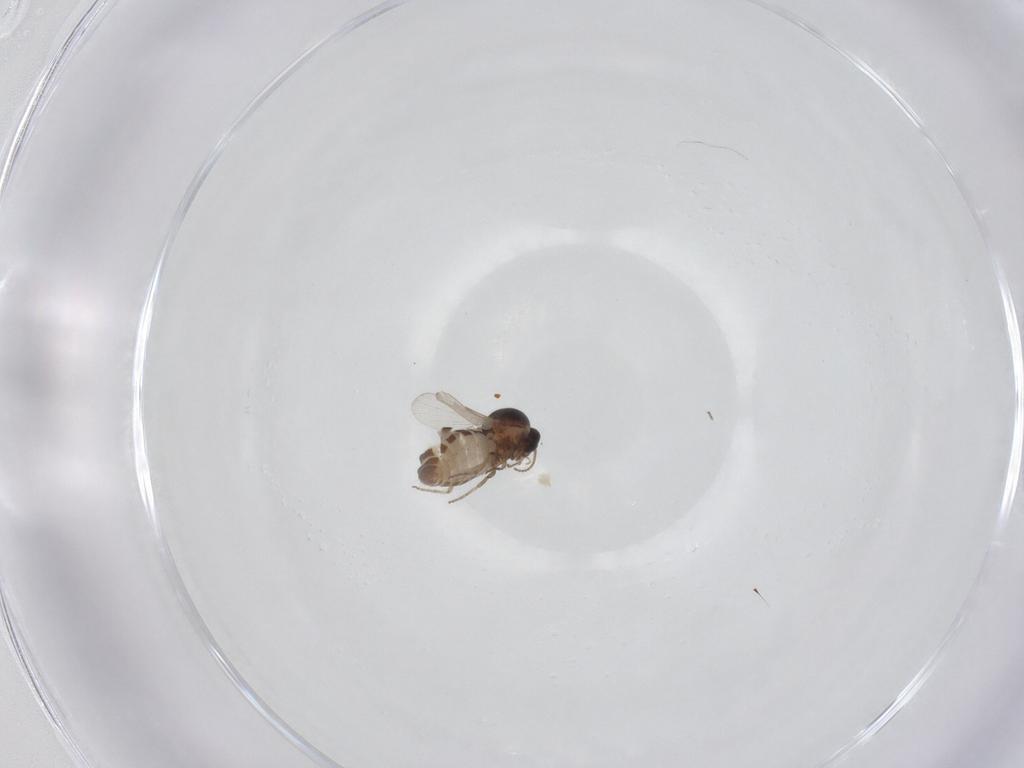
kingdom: Animalia
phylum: Arthropoda
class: Insecta
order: Diptera
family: Ceratopogonidae
